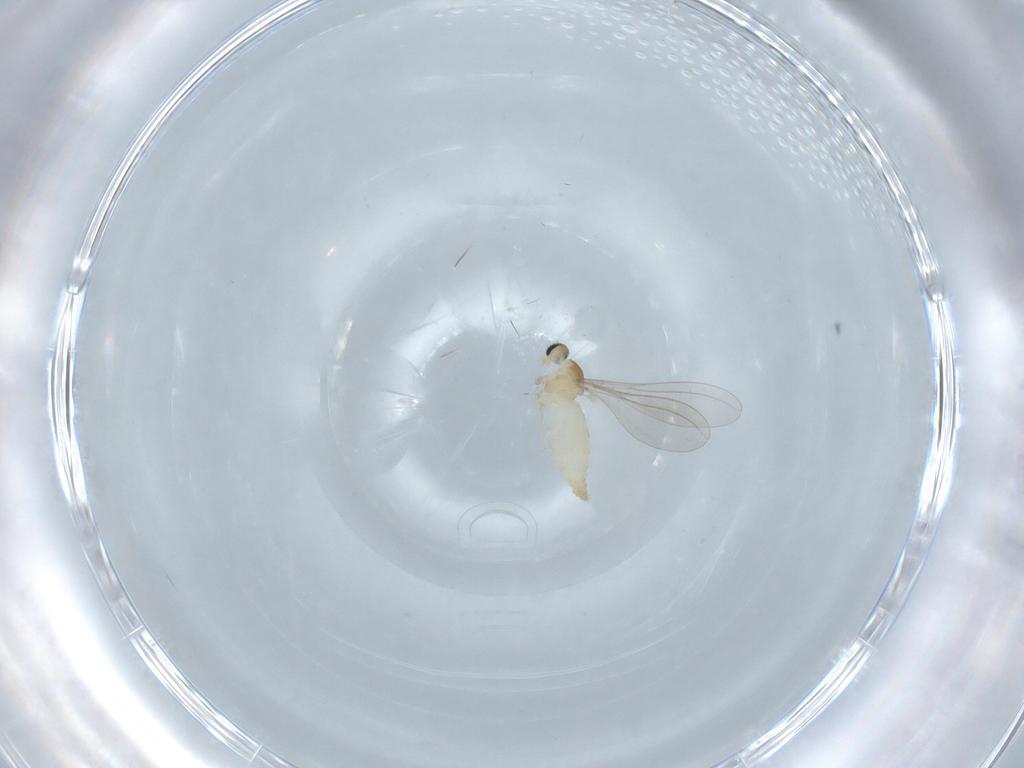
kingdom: Animalia
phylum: Arthropoda
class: Insecta
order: Diptera
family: Cecidomyiidae
